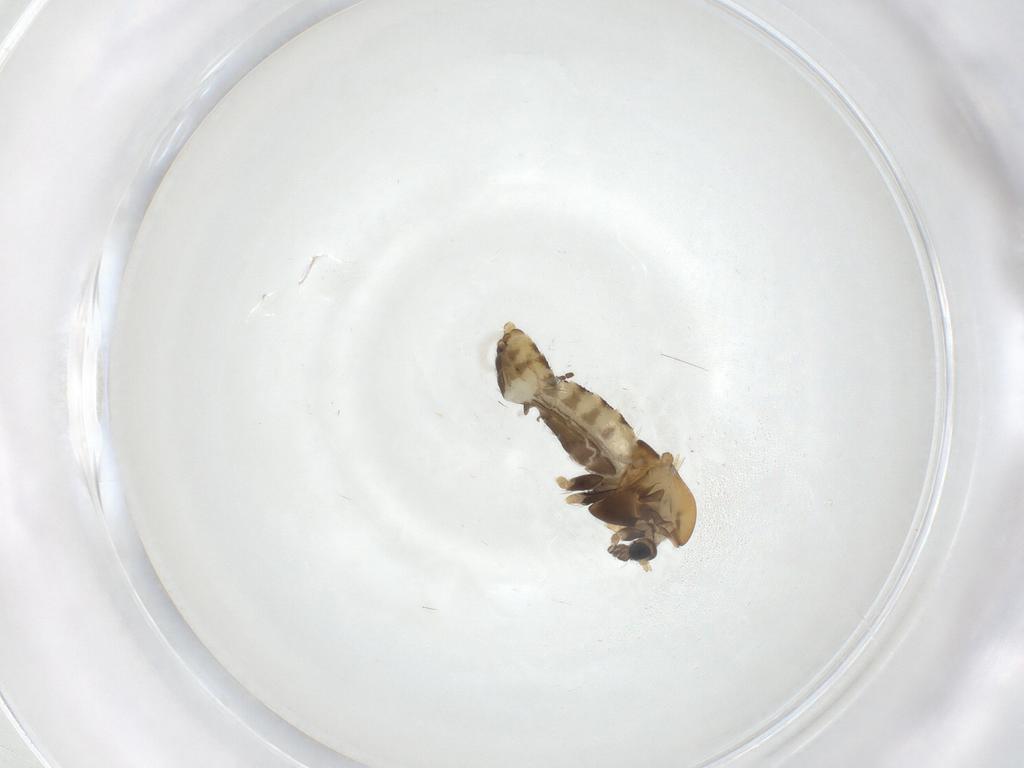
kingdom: Animalia
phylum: Arthropoda
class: Insecta
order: Diptera
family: Chironomidae
